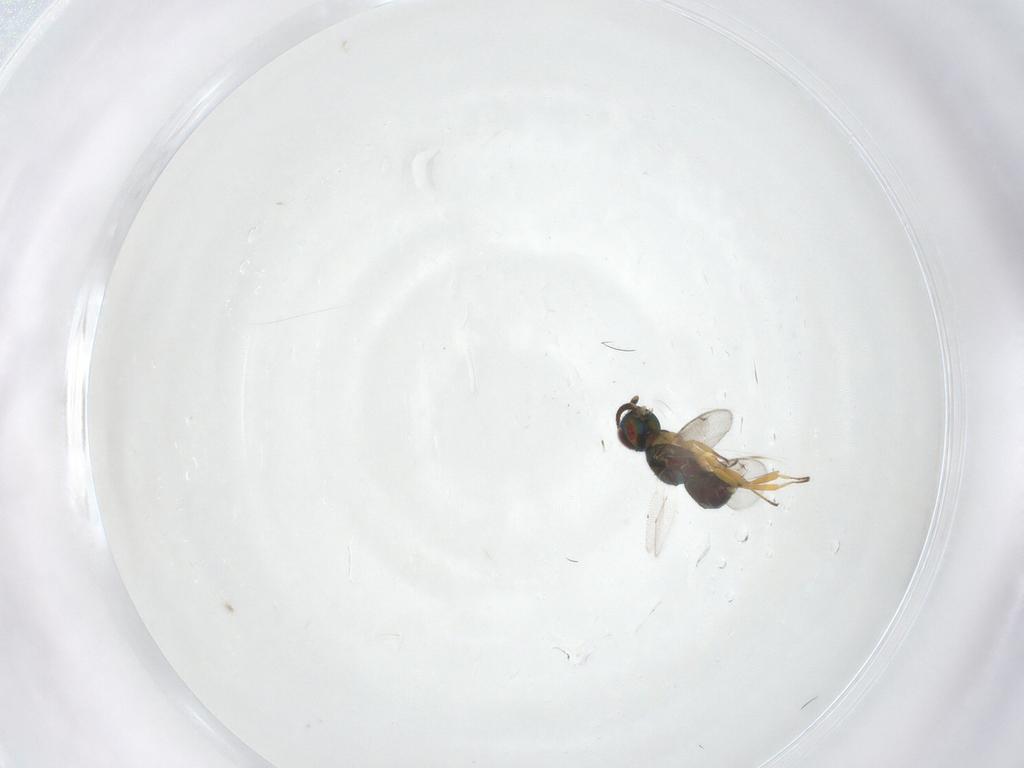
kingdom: Animalia
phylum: Arthropoda
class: Insecta
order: Hymenoptera
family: Eupelmidae
